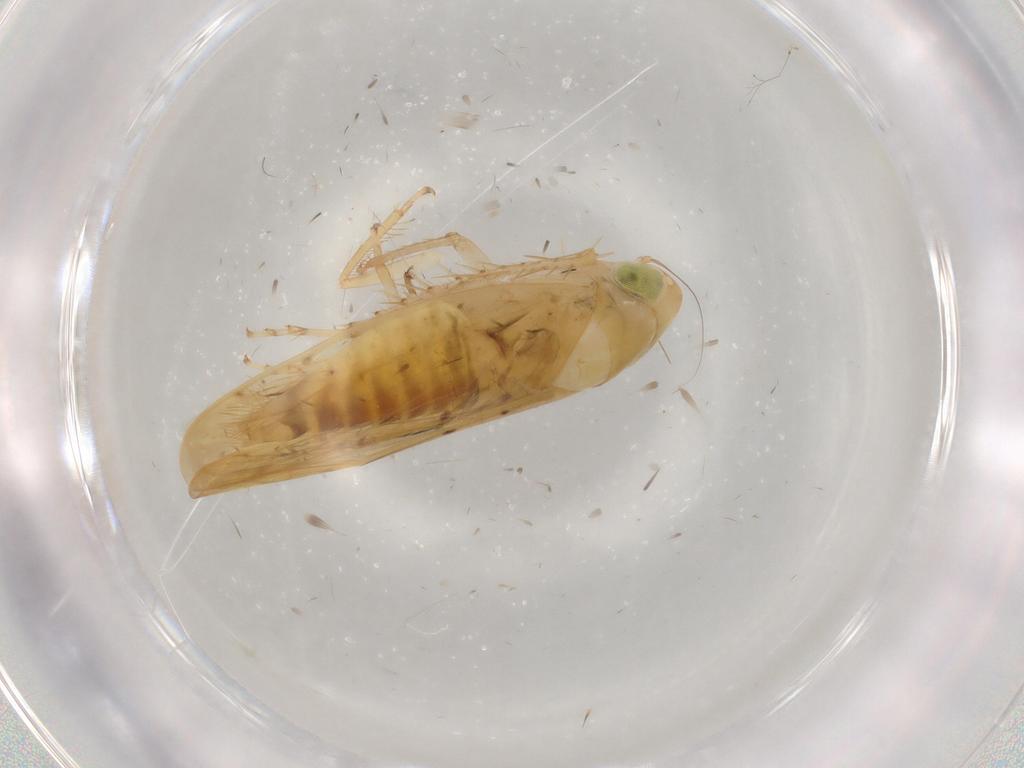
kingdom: Animalia
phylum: Arthropoda
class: Insecta
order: Hemiptera
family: Cicadellidae
